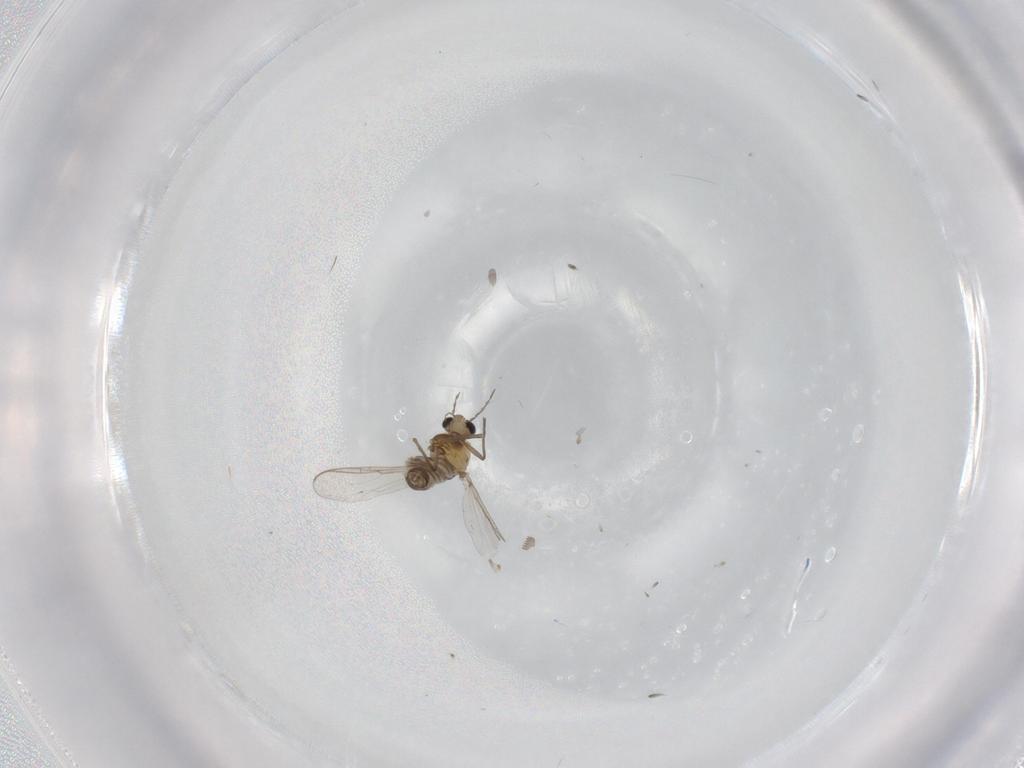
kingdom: Animalia
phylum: Arthropoda
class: Insecta
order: Diptera
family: Chironomidae
